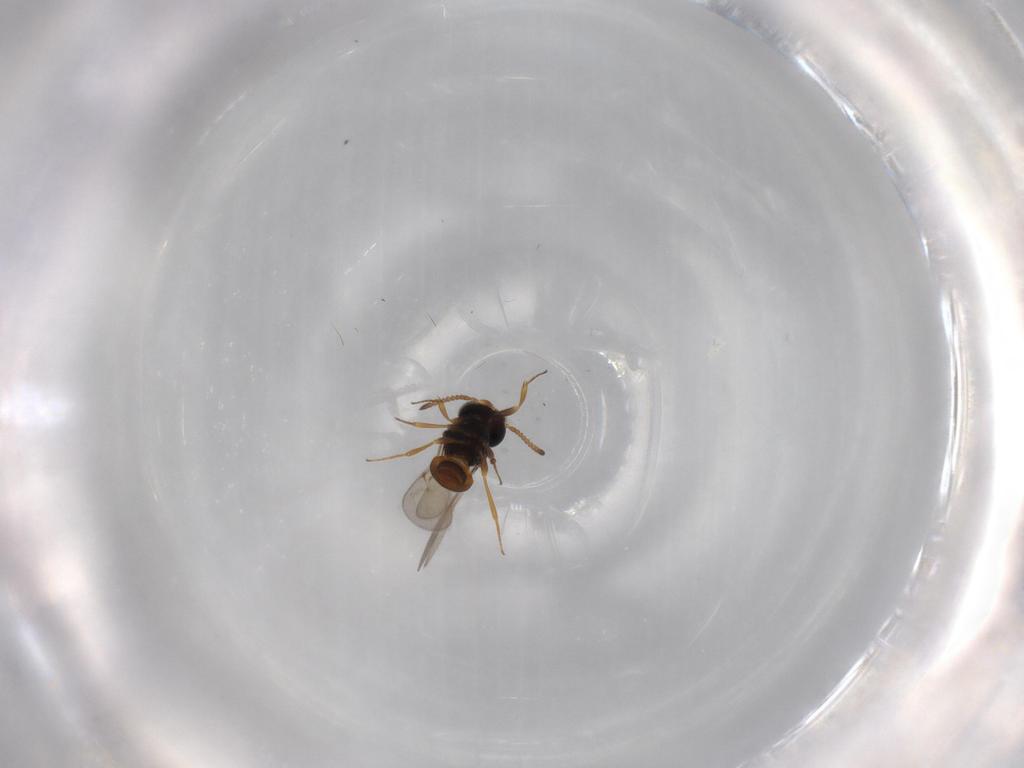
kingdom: Animalia
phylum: Arthropoda
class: Insecta
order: Hymenoptera
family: Scelionidae
